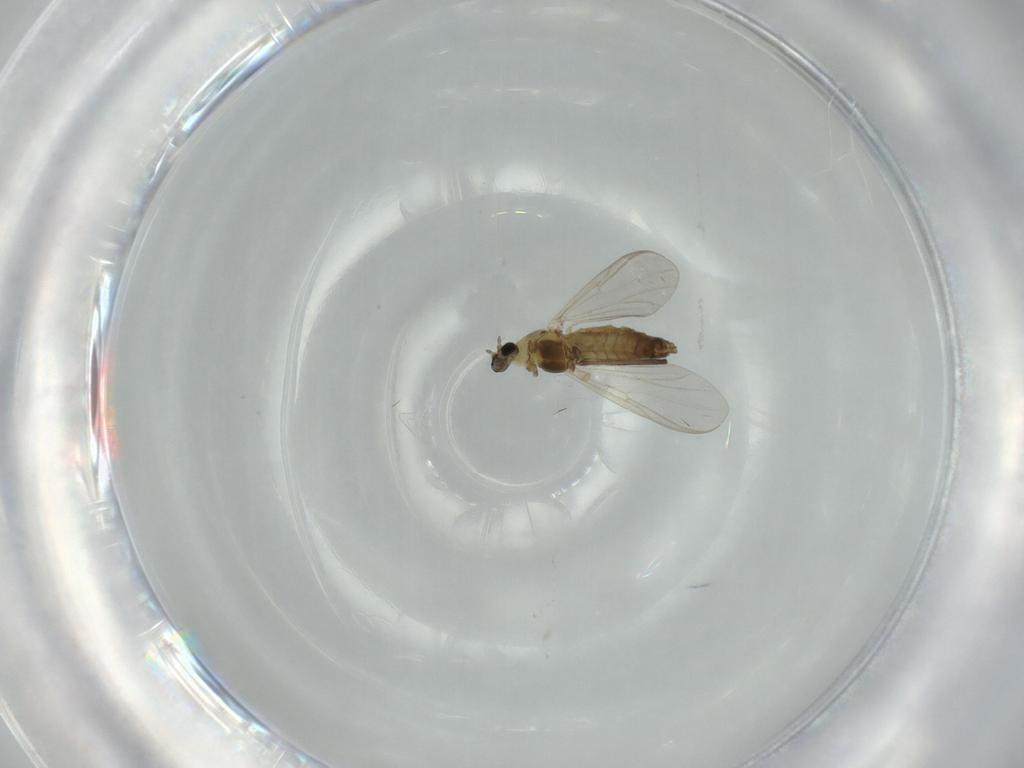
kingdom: Animalia
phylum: Arthropoda
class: Insecta
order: Diptera
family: Chironomidae
